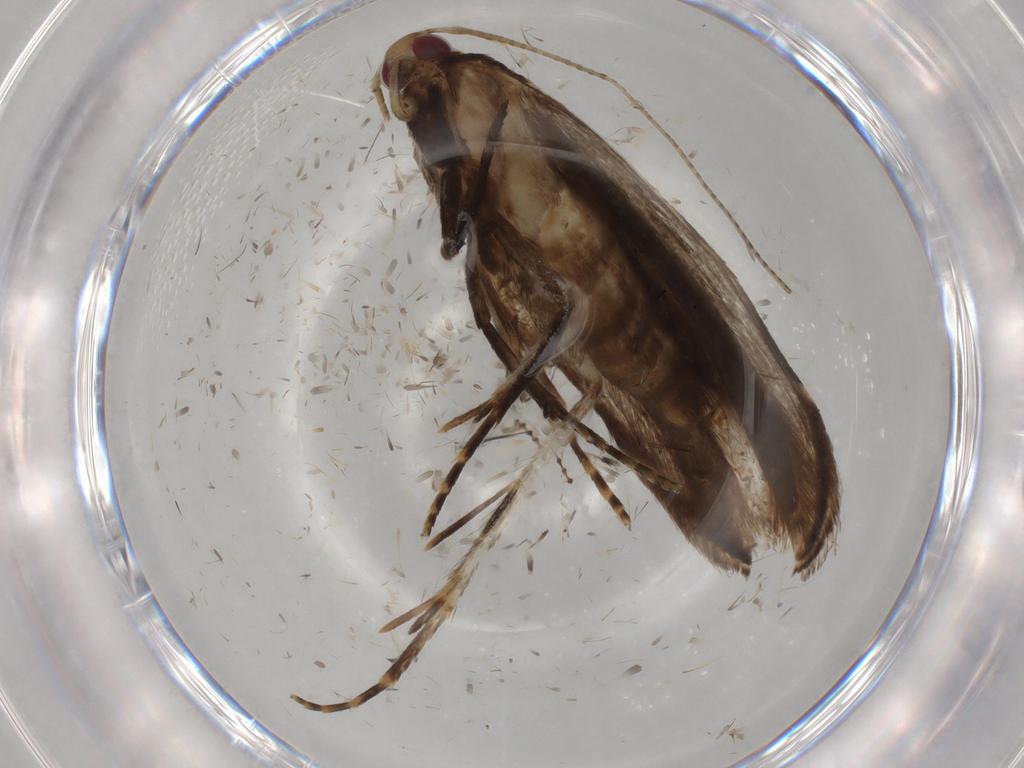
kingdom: Animalia
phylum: Arthropoda
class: Insecta
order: Lepidoptera
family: Gelechiidae
